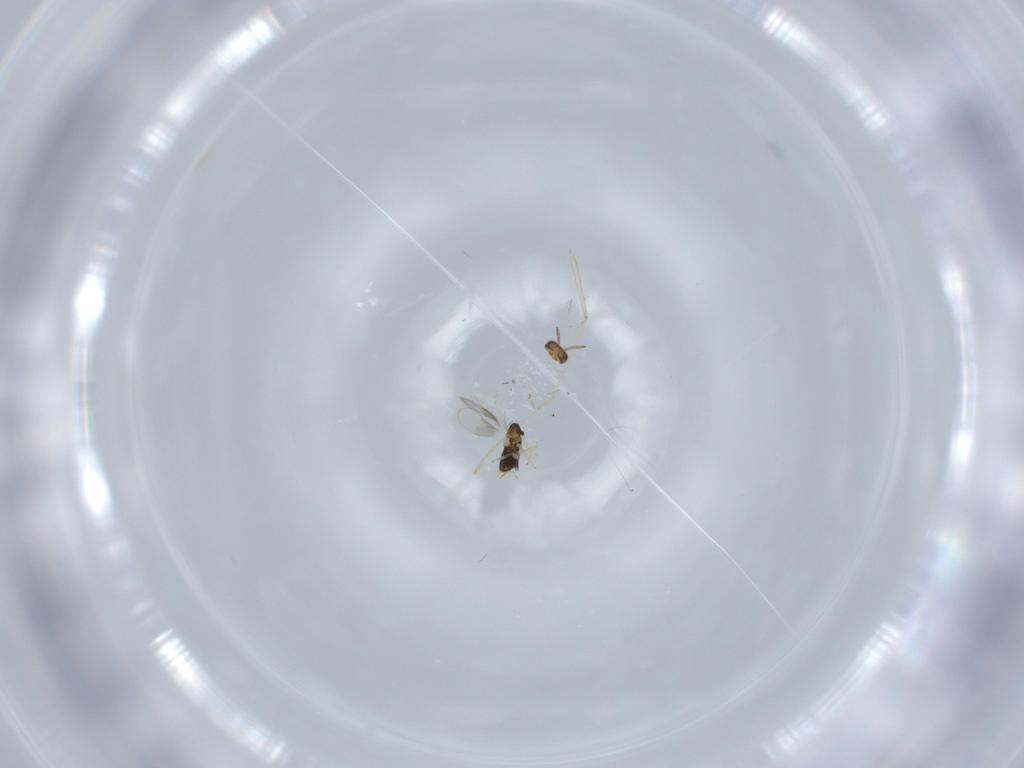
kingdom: Animalia
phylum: Arthropoda
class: Insecta
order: Hymenoptera
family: Aphelinidae
